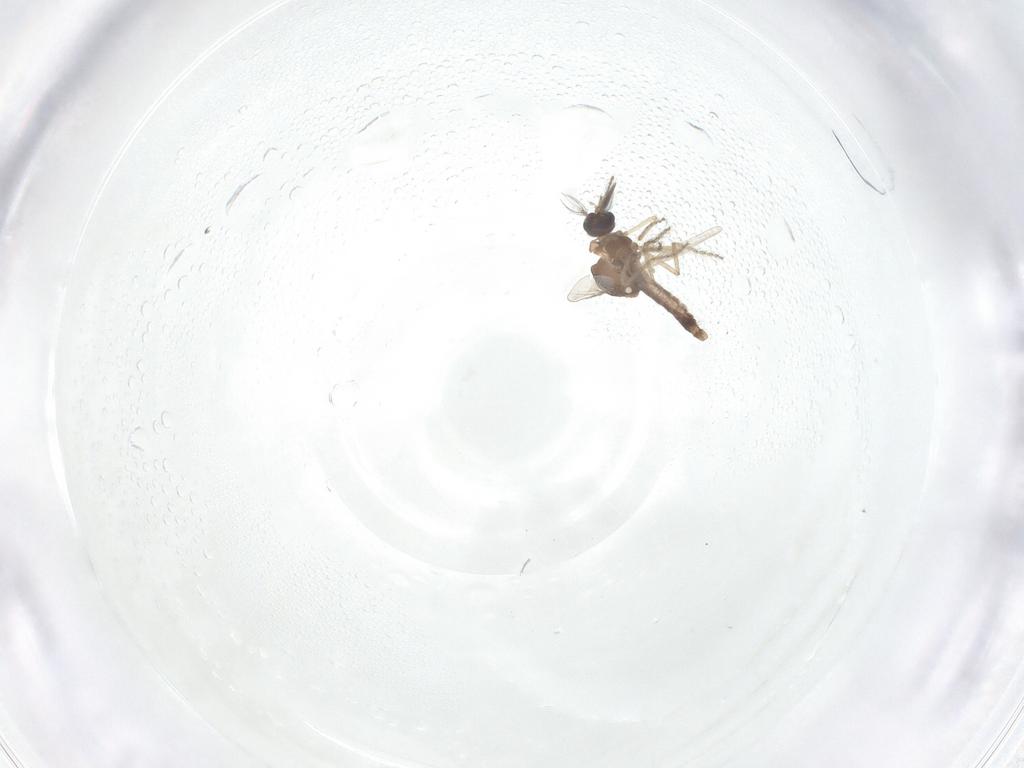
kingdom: Animalia
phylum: Arthropoda
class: Insecta
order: Diptera
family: Ceratopogonidae
